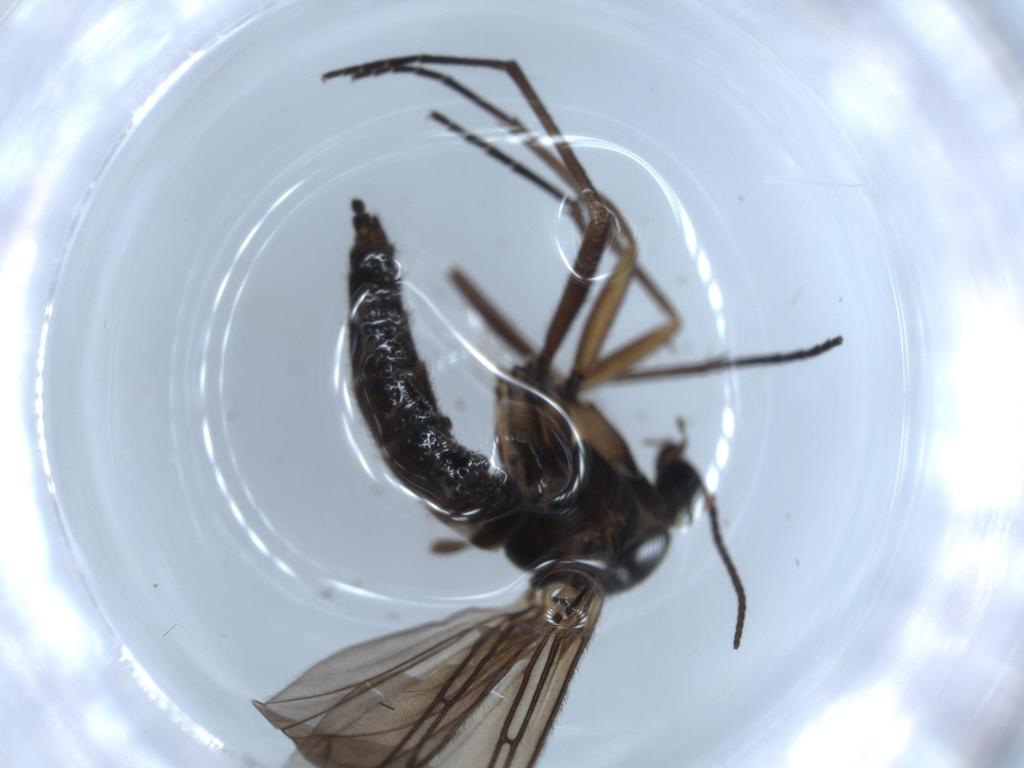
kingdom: Animalia
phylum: Arthropoda
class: Insecta
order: Diptera
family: Sciaridae
